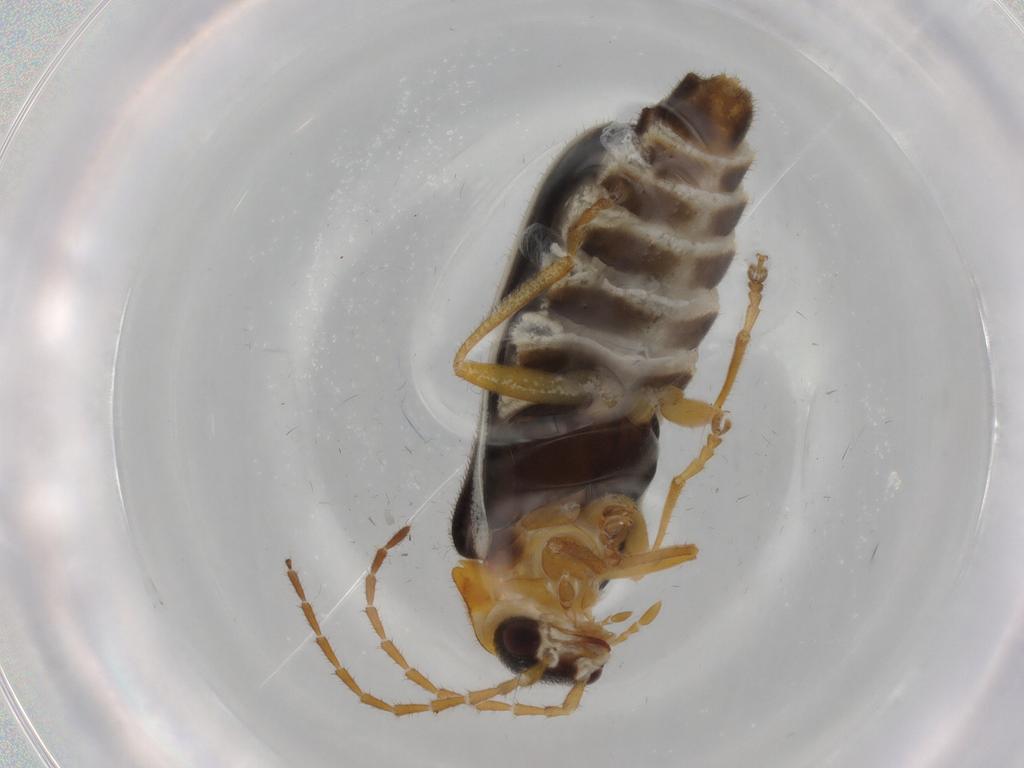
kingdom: Animalia
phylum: Arthropoda
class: Insecta
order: Coleoptera
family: Cantharidae
